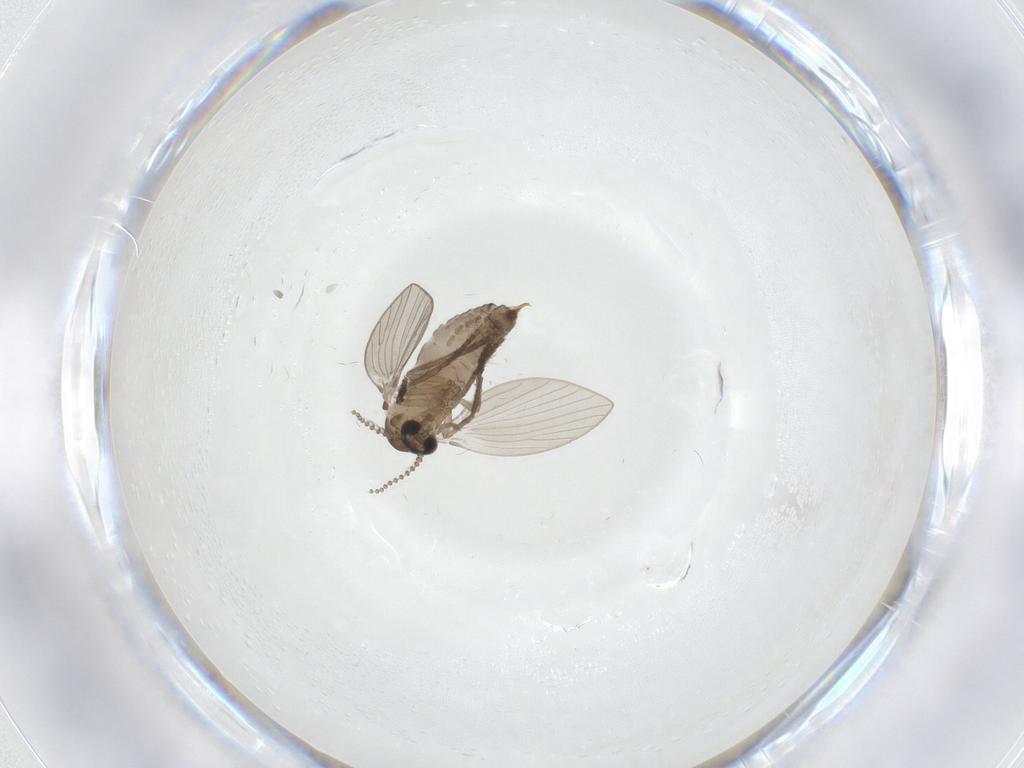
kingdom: Animalia
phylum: Arthropoda
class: Insecta
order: Diptera
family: Psychodidae
